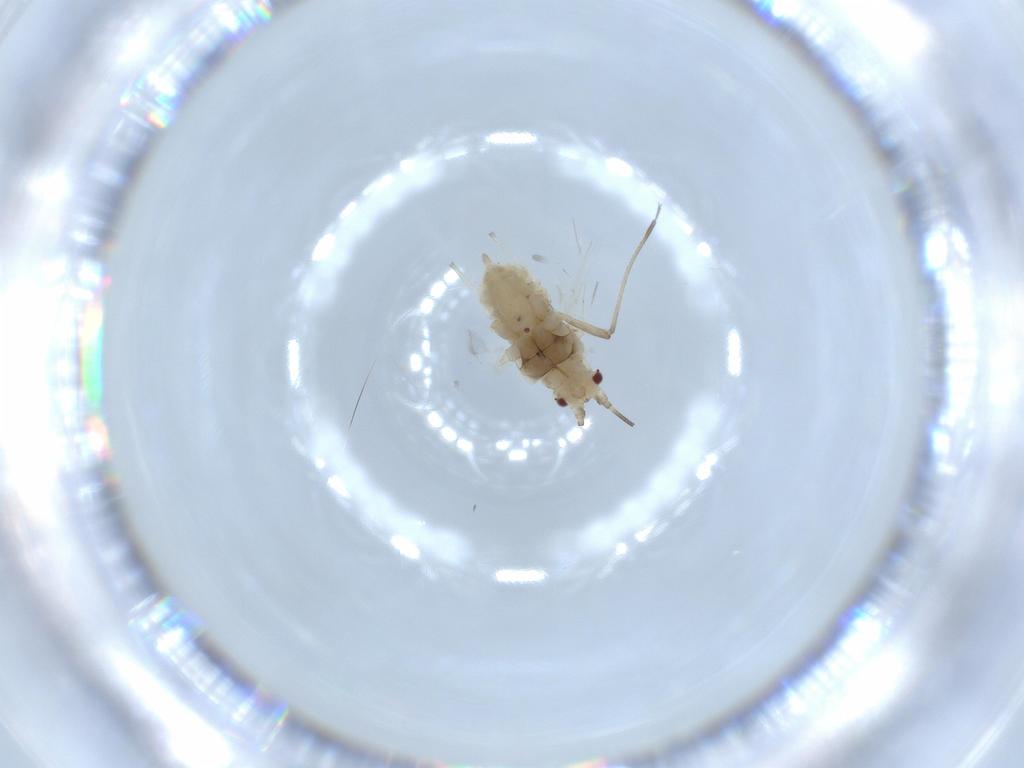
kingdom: Animalia
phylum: Arthropoda
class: Insecta
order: Hemiptera
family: Aphididae
